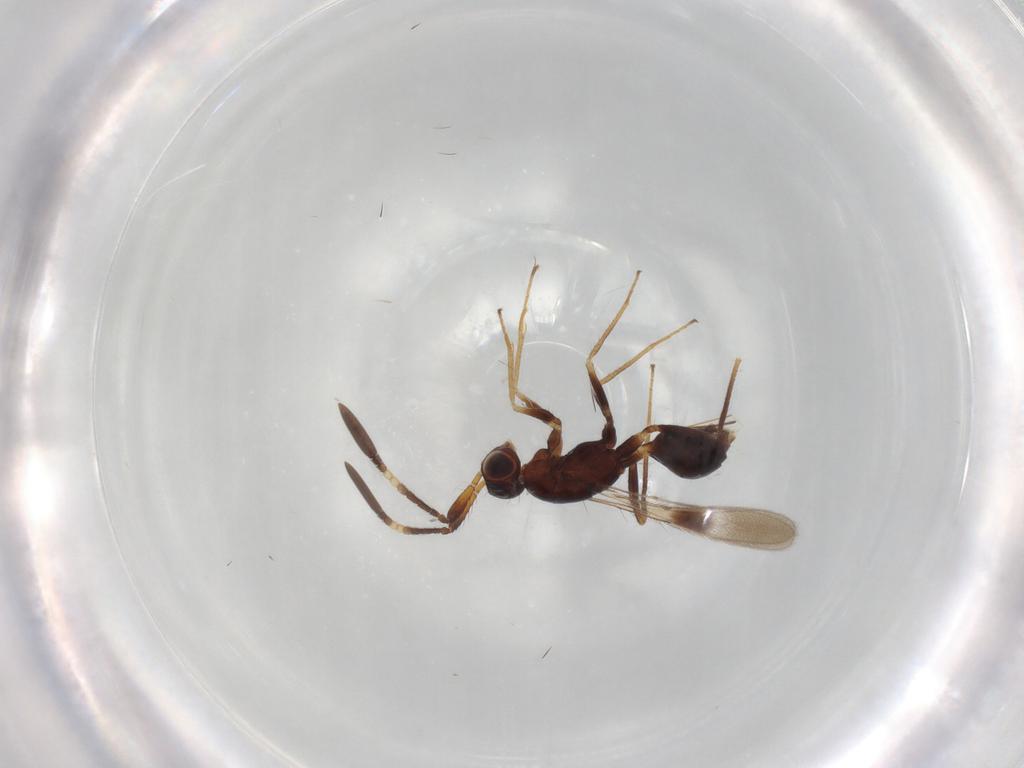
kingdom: Animalia
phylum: Arthropoda
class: Insecta
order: Hymenoptera
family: Mymaridae
